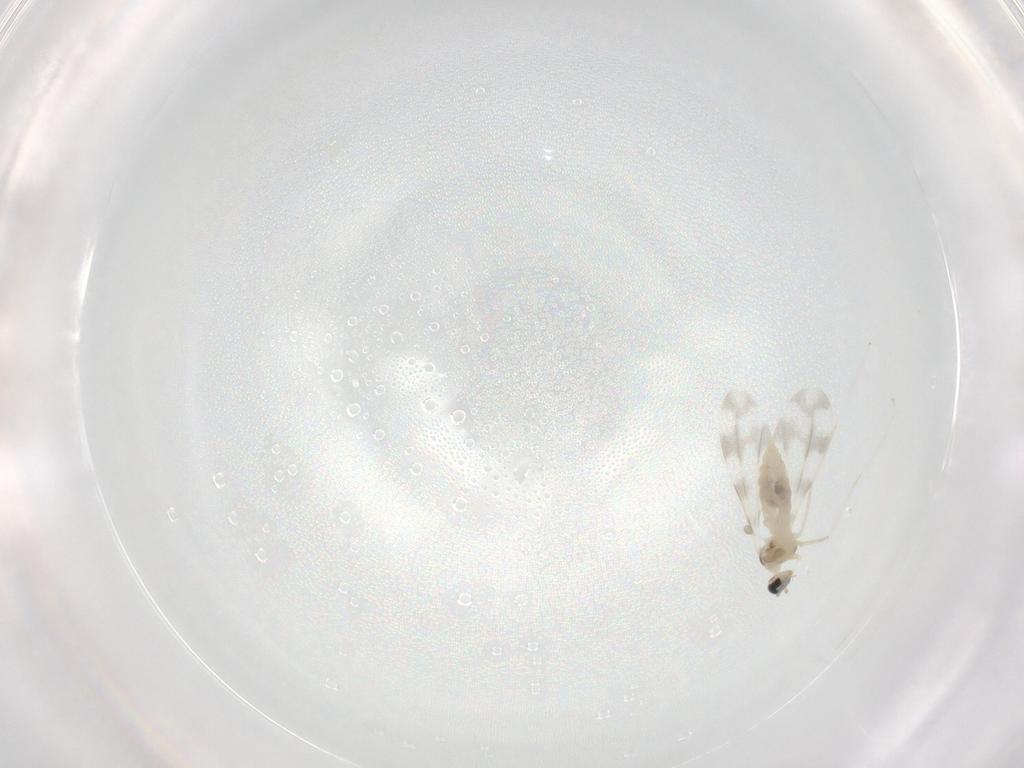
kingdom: Animalia
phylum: Arthropoda
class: Insecta
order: Diptera
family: Cecidomyiidae
